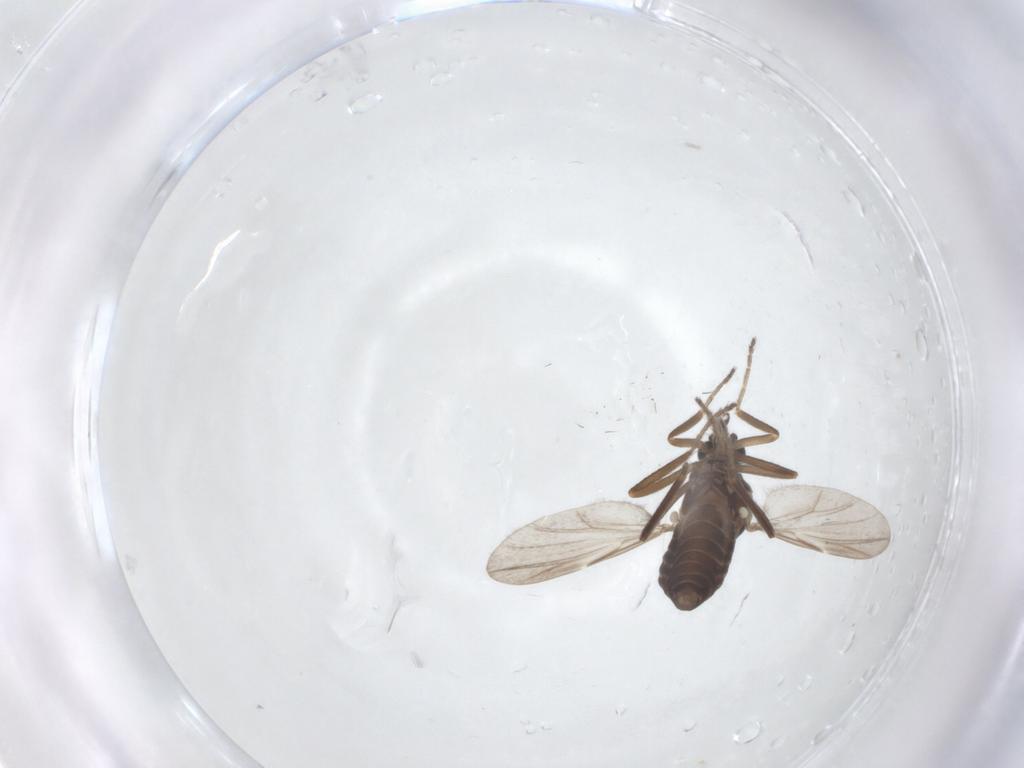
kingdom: Animalia
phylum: Arthropoda
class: Insecta
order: Diptera
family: Ceratopogonidae
